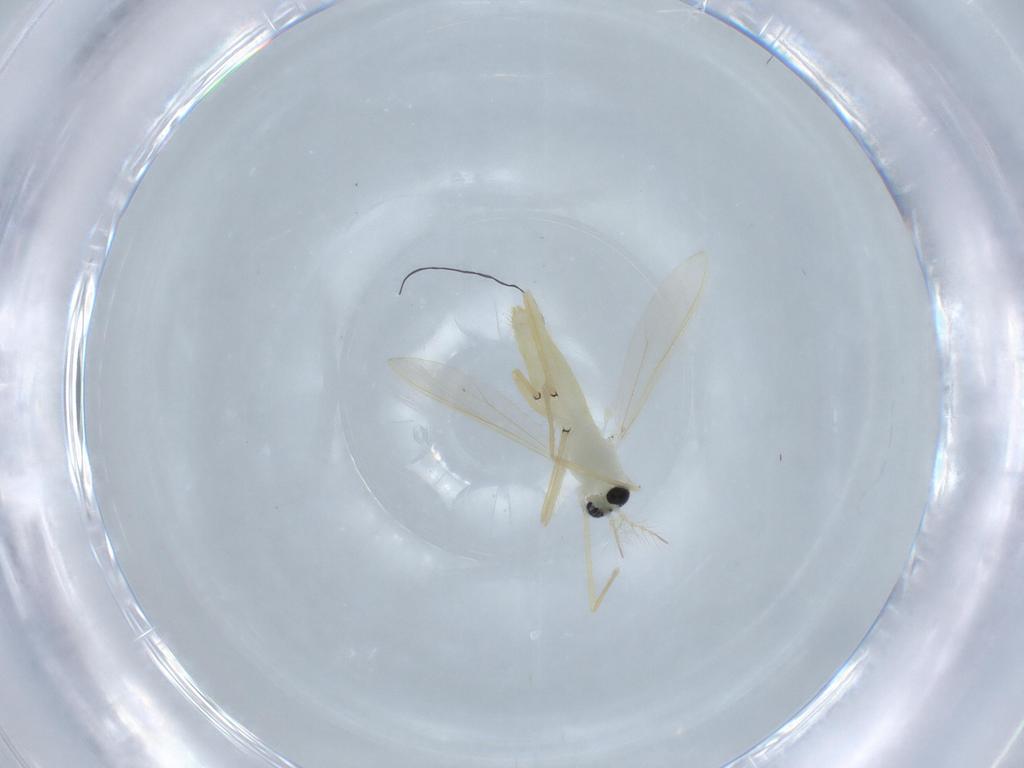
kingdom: Animalia
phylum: Arthropoda
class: Insecta
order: Diptera
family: Chironomidae
